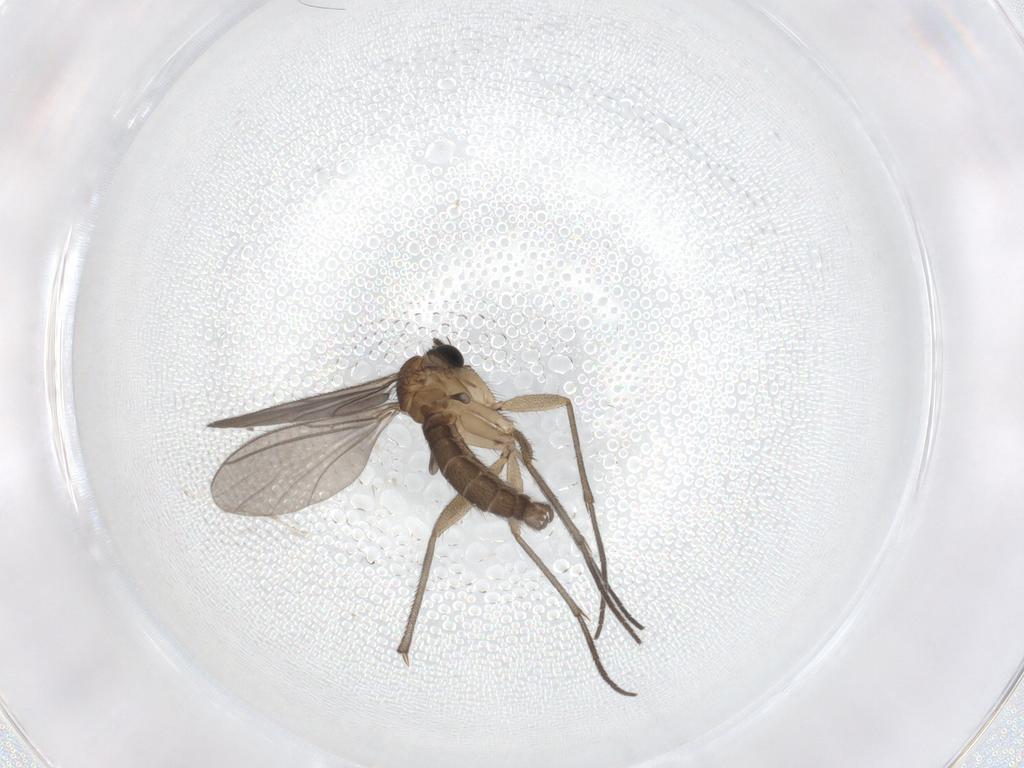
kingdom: Animalia
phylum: Arthropoda
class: Insecta
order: Diptera
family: Sciaridae
